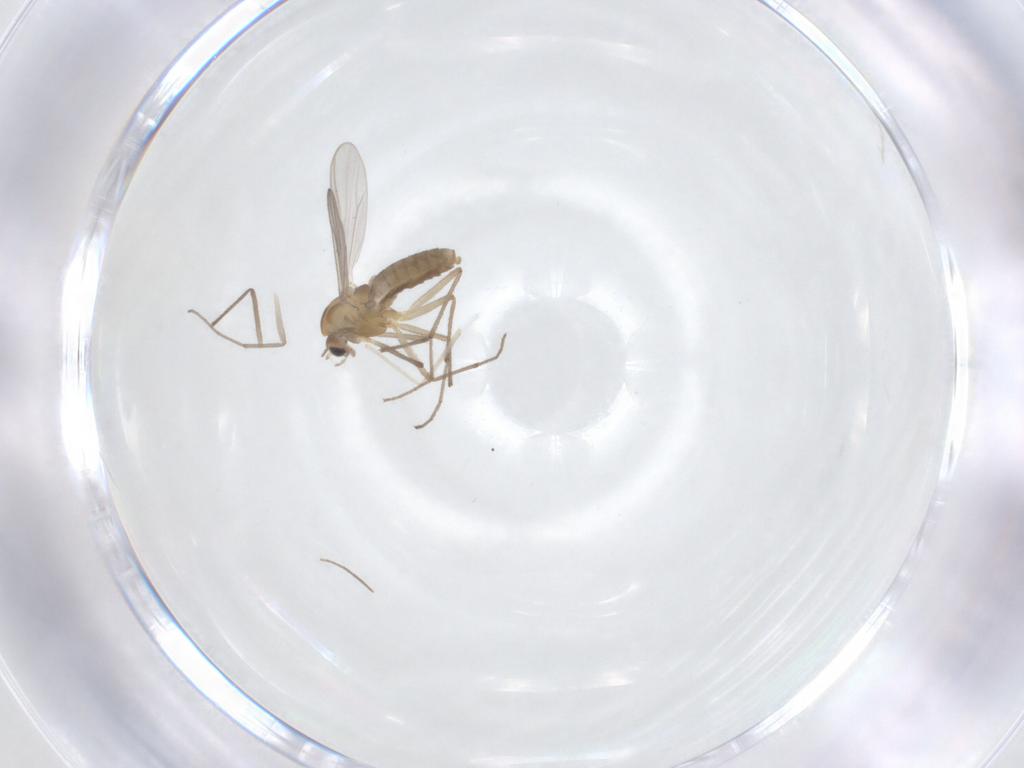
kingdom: Animalia
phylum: Arthropoda
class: Insecta
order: Diptera
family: Chironomidae
